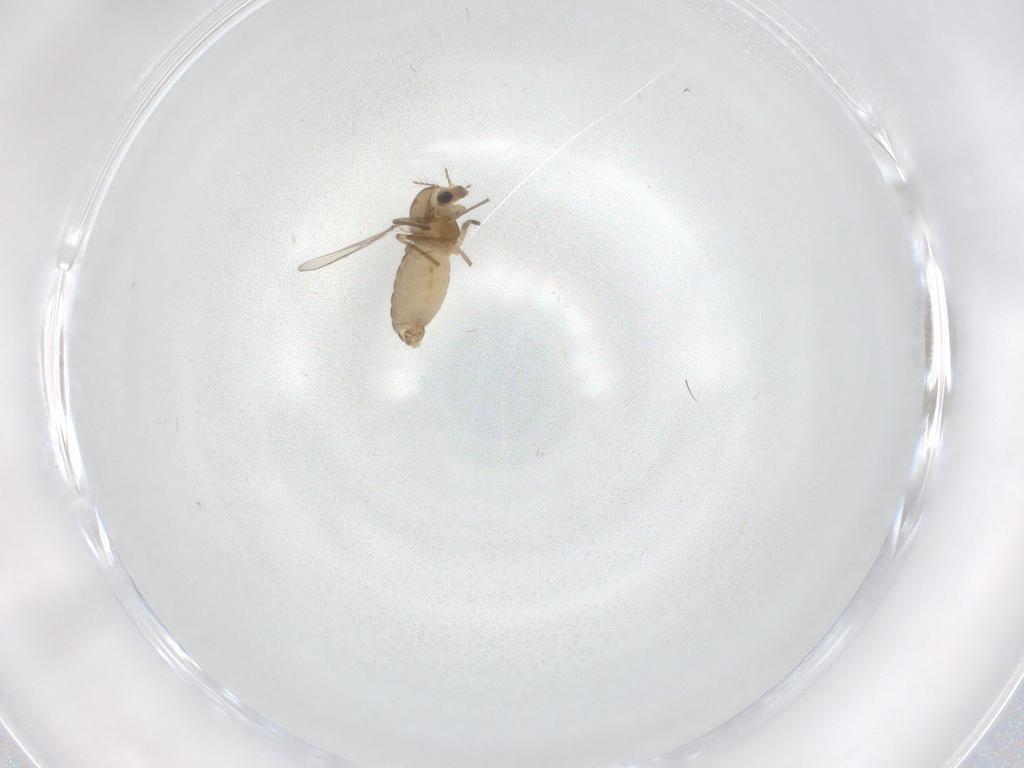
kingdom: Animalia
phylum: Arthropoda
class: Insecta
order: Diptera
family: Chironomidae
